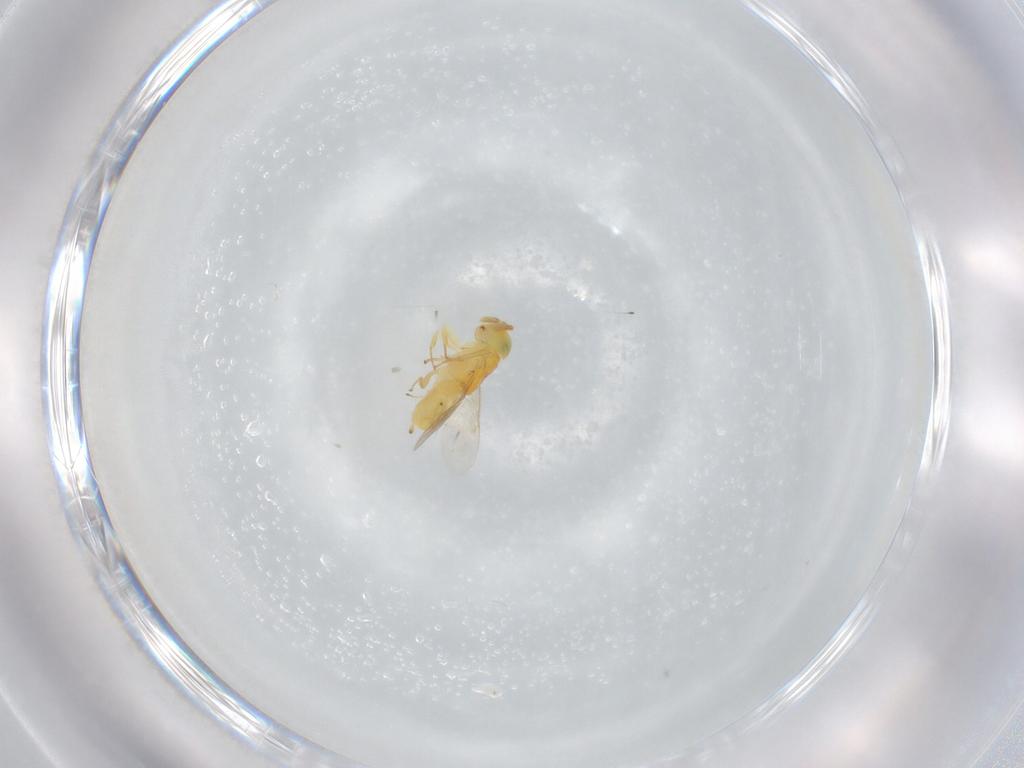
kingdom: Animalia
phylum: Arthropoda
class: Insecta
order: Hymenoptera
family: Encyrtidae
